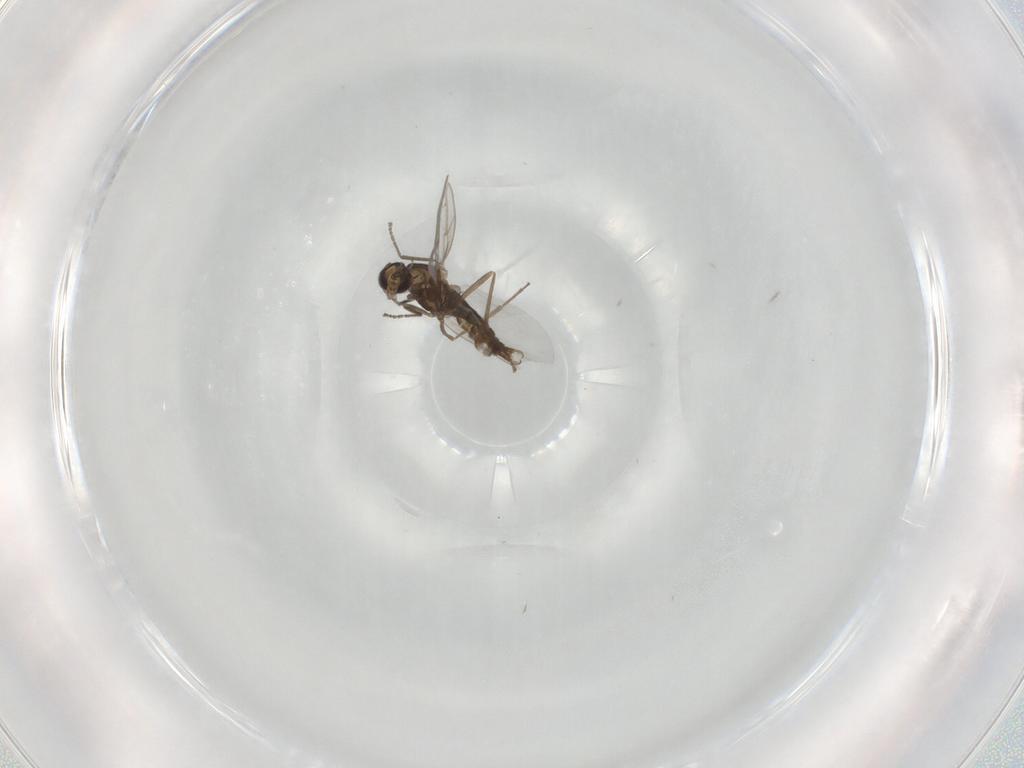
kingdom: Animalia
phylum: Arthropoda
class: Insecta
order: Diptera
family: Cecidomyiidae
